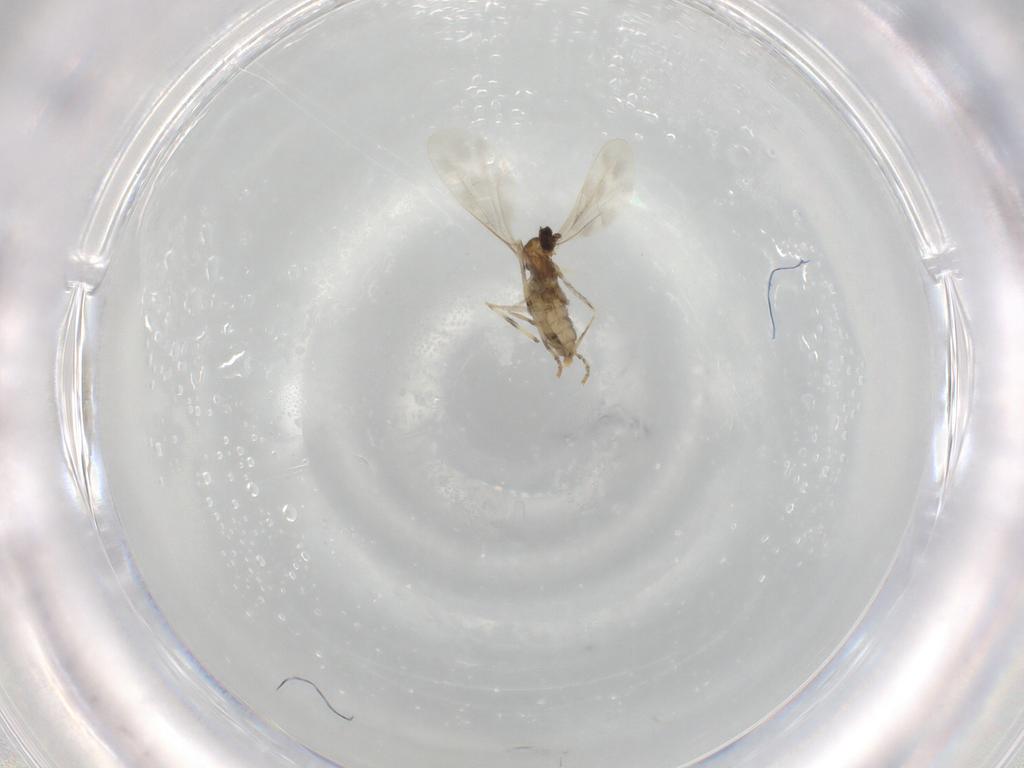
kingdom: Animalia
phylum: Arthropoda
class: Insecta
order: Diptera
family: Cecidomyiidae
